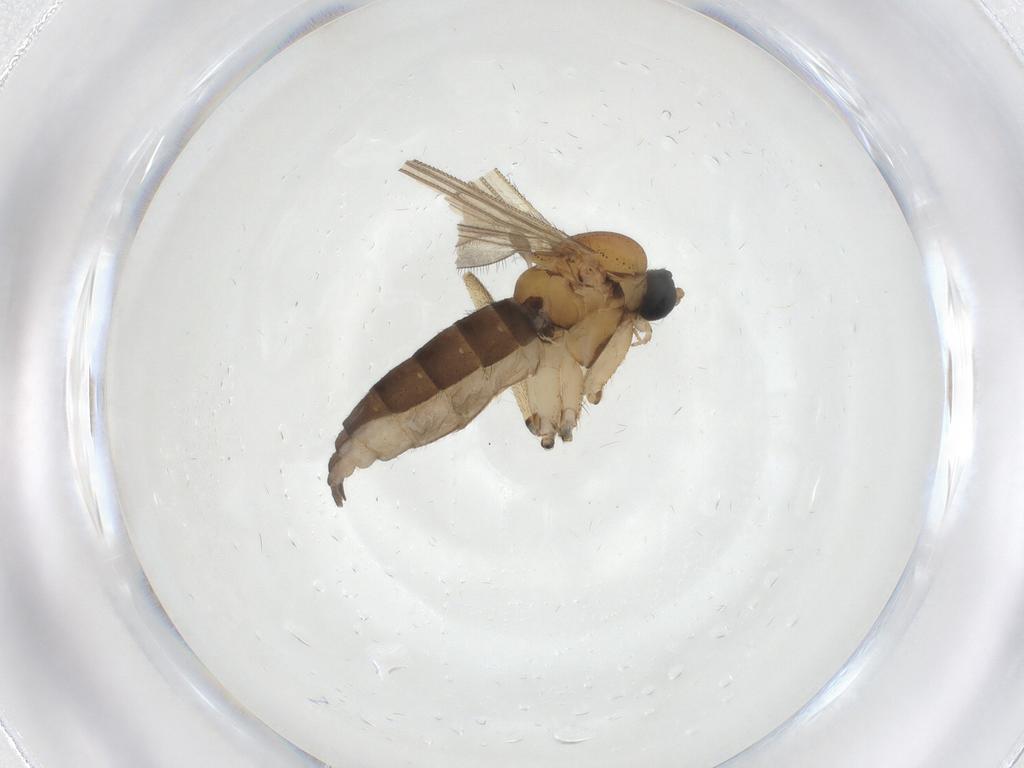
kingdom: Animalia
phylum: Arthropoda
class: Insecta
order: Diptera
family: Sciaridae
